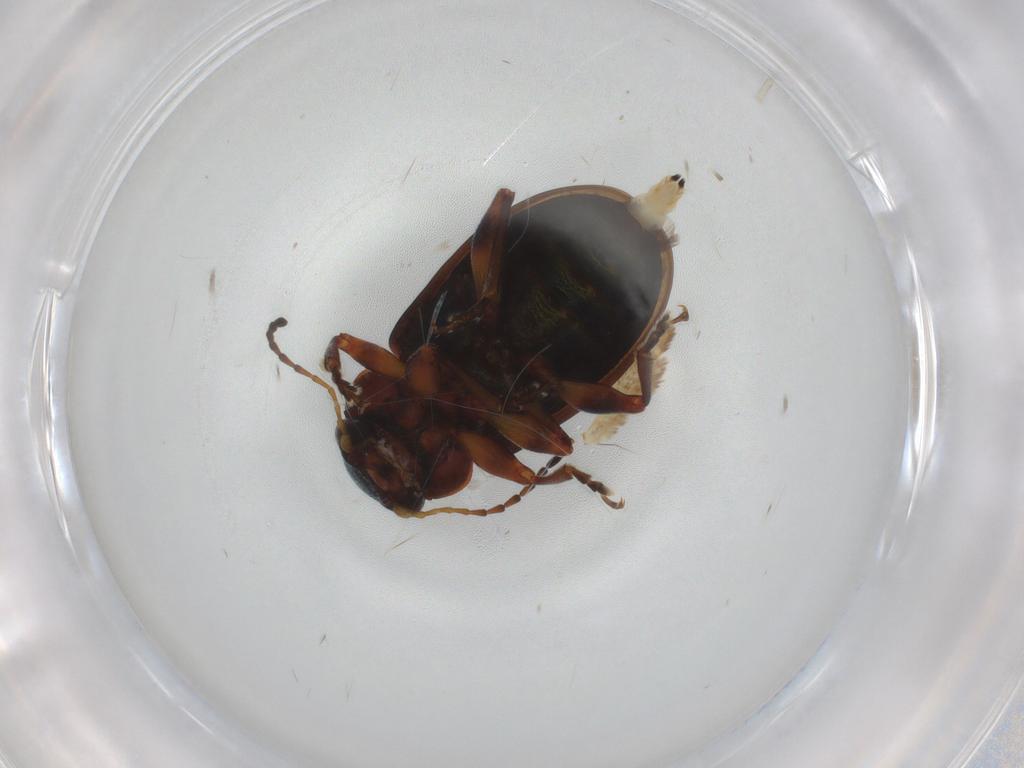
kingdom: Animalia
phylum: Arthropoda
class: Insecta
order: Coleoptera
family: Chrysomelidae
